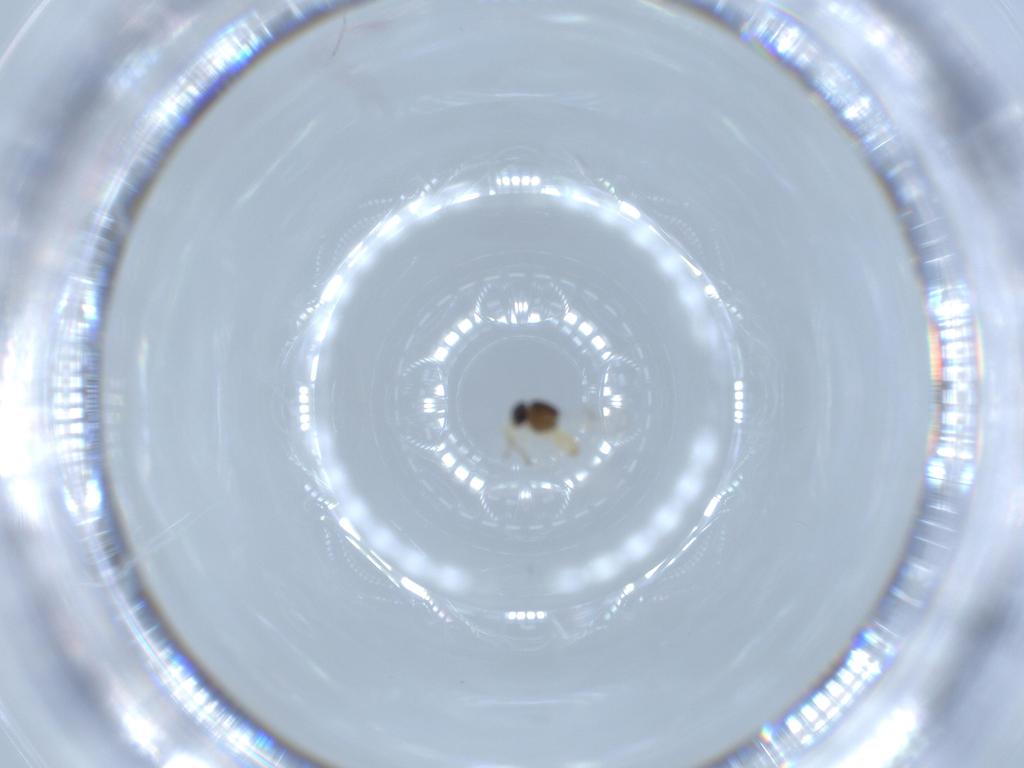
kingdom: Animalia
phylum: Arthropoda
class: Insecta
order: Hymenoptera
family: Scelionidae
